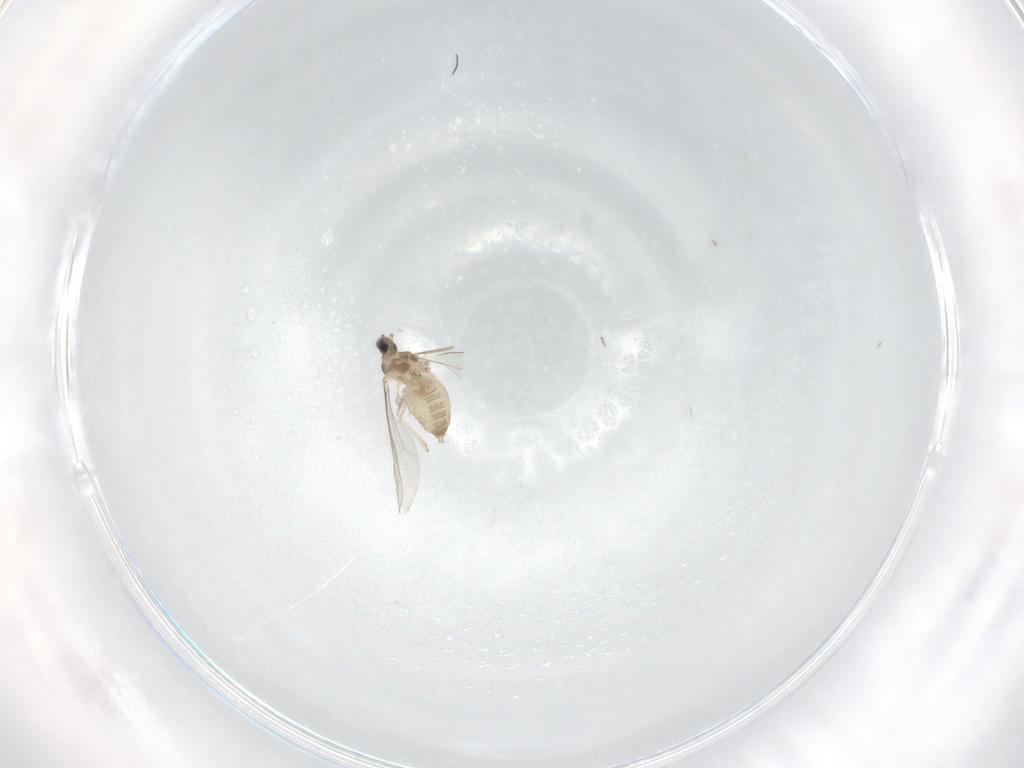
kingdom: Animalia
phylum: Arthropoda
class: Insecta
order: Diptera
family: Cecidomyiidae
